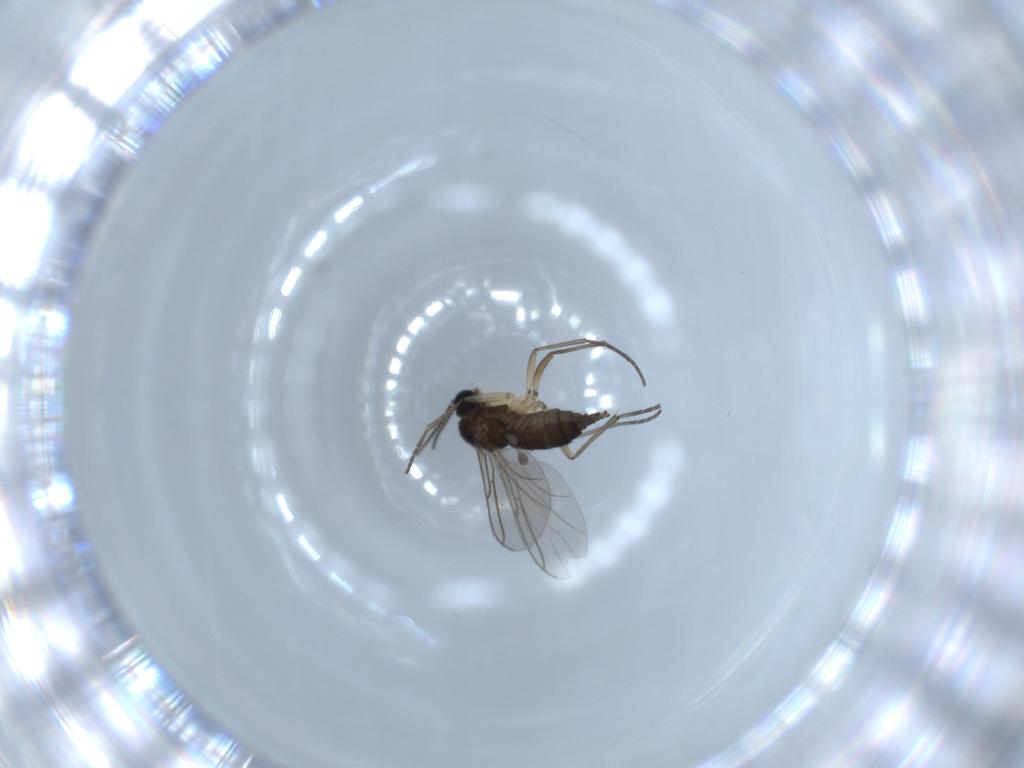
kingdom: Animalia
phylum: Arthropoda
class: Insecta
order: Diptera
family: Sciaridae
